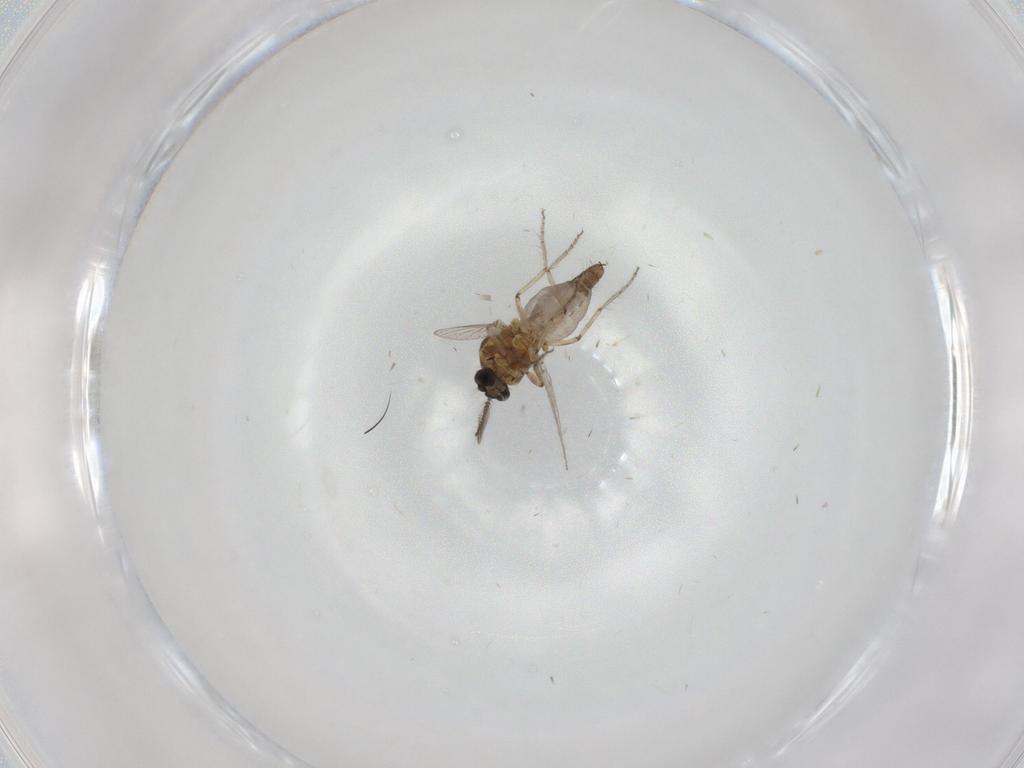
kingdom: Animalia
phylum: Arthropoda
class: Insecta
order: Diptera
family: Ceratopogonidae
